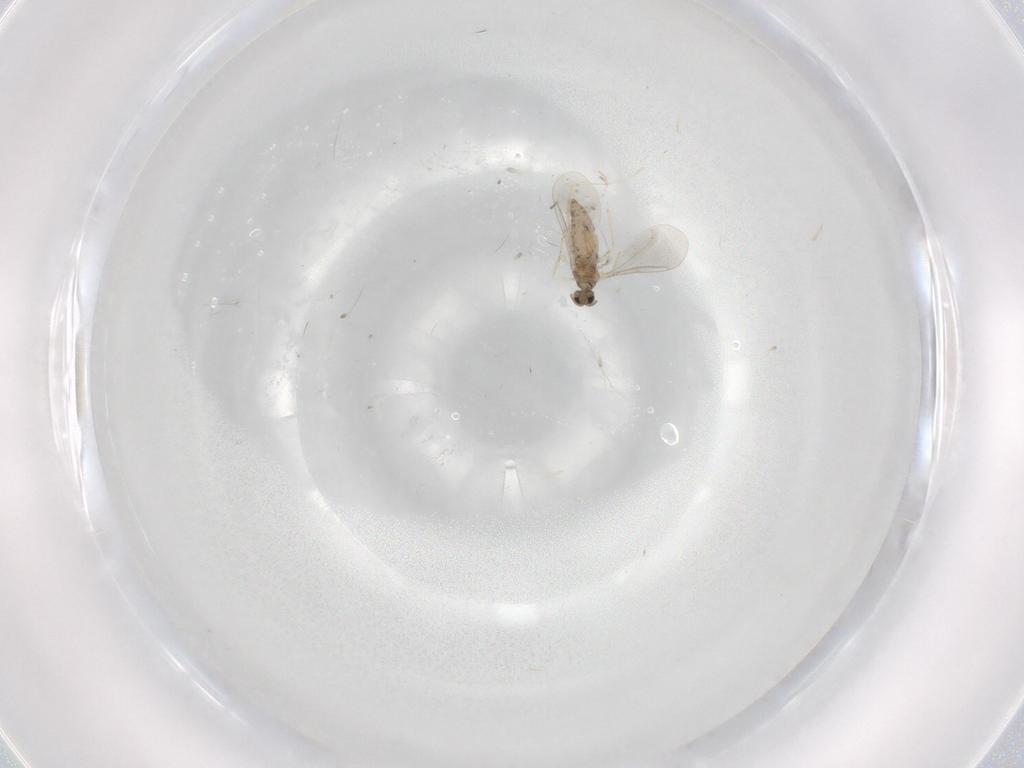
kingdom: Animalia
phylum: Arthropoda
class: Insecta
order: Diptera
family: Cecidomyiidae
